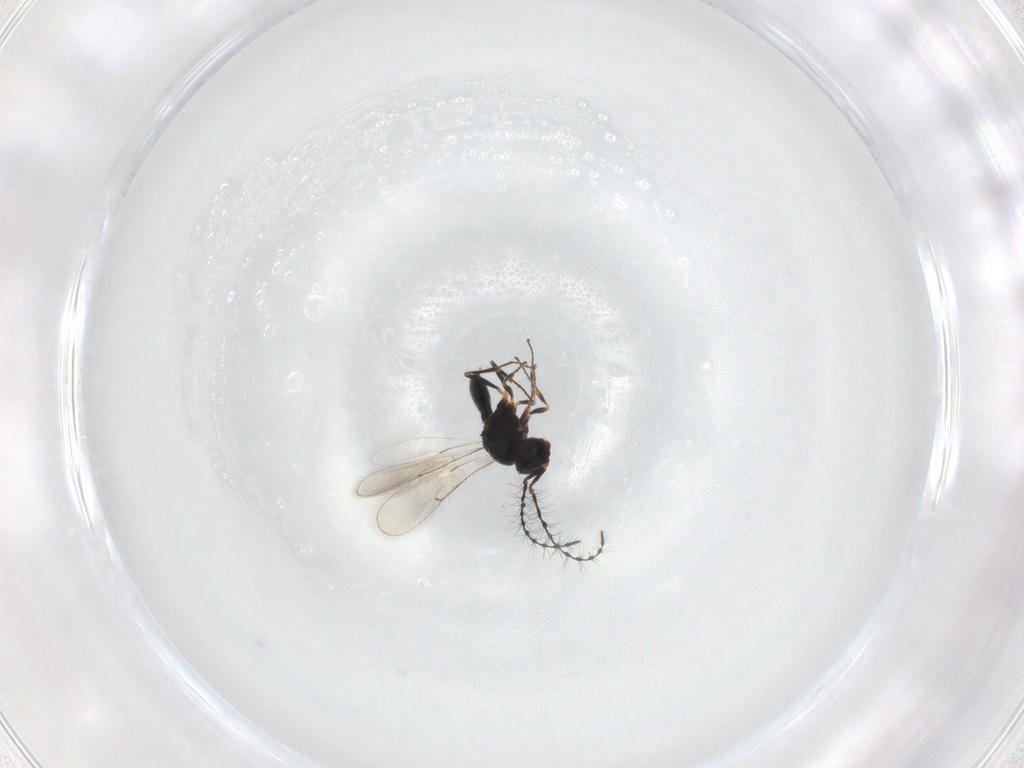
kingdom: Animalia
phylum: Arthropoda
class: Insecta
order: Hymenoptera
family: Scelionidae
